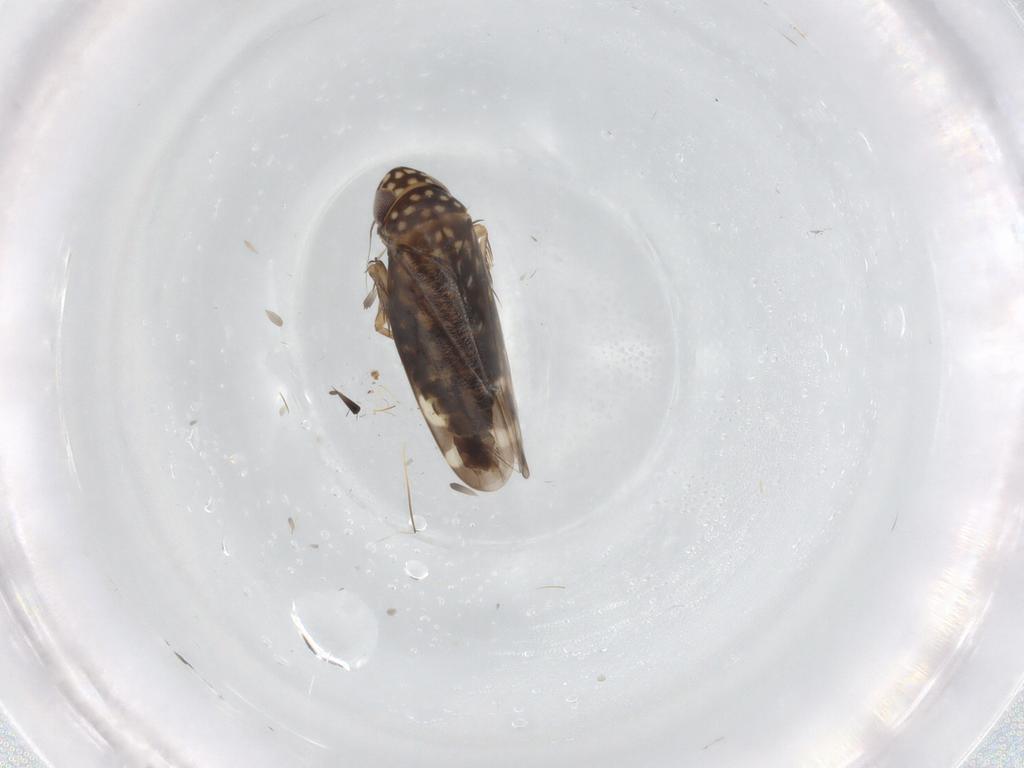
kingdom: Animalia
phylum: Arthropoda
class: Insecta
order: Hemiptera
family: Cicadellidae
